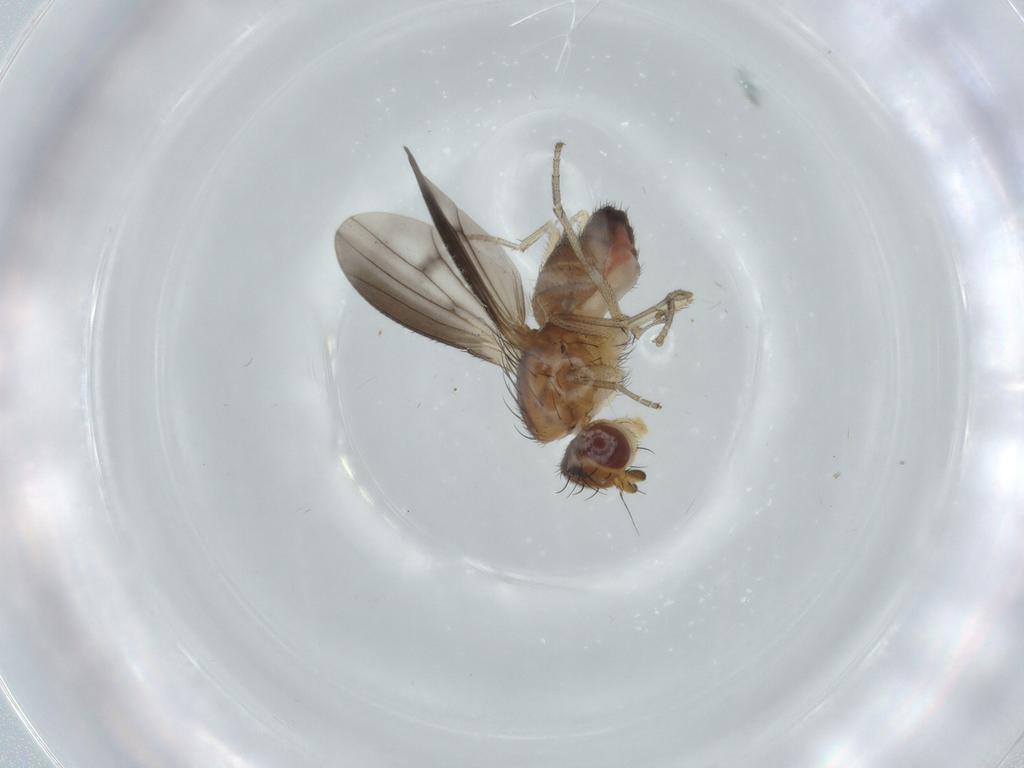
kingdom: Animalia
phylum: Arthropoda
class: Insecta
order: Diptera
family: Heleomyzidae
